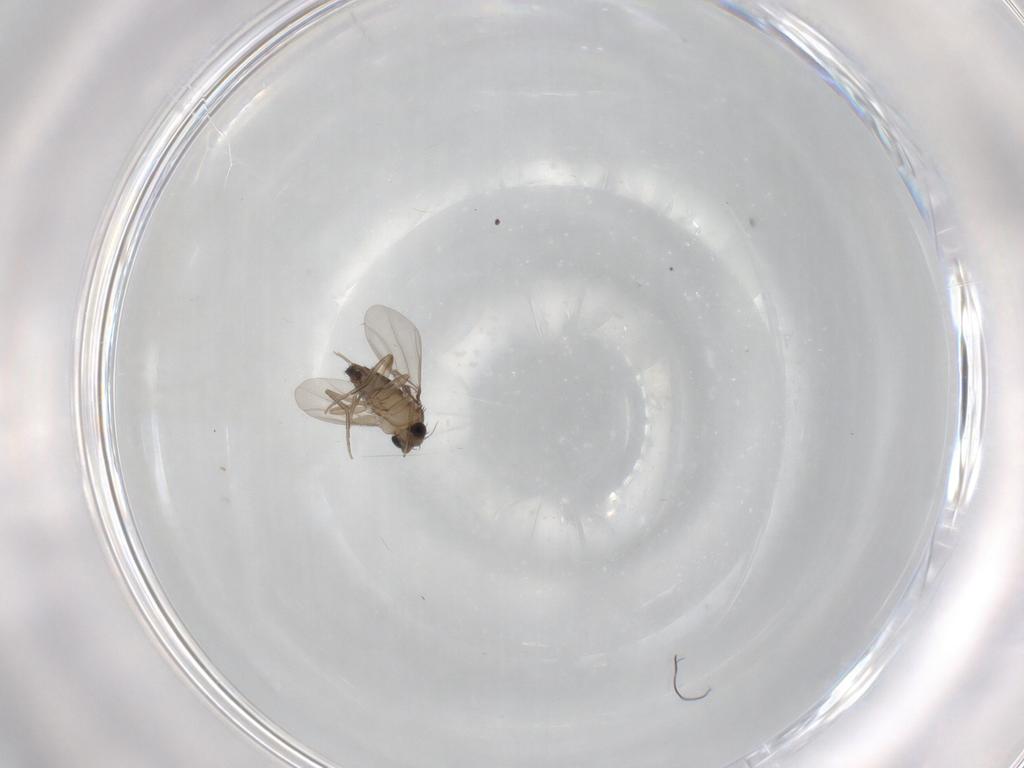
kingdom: Animalia
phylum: Arthropoda
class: Insecta
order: Diptera
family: Phoridae
